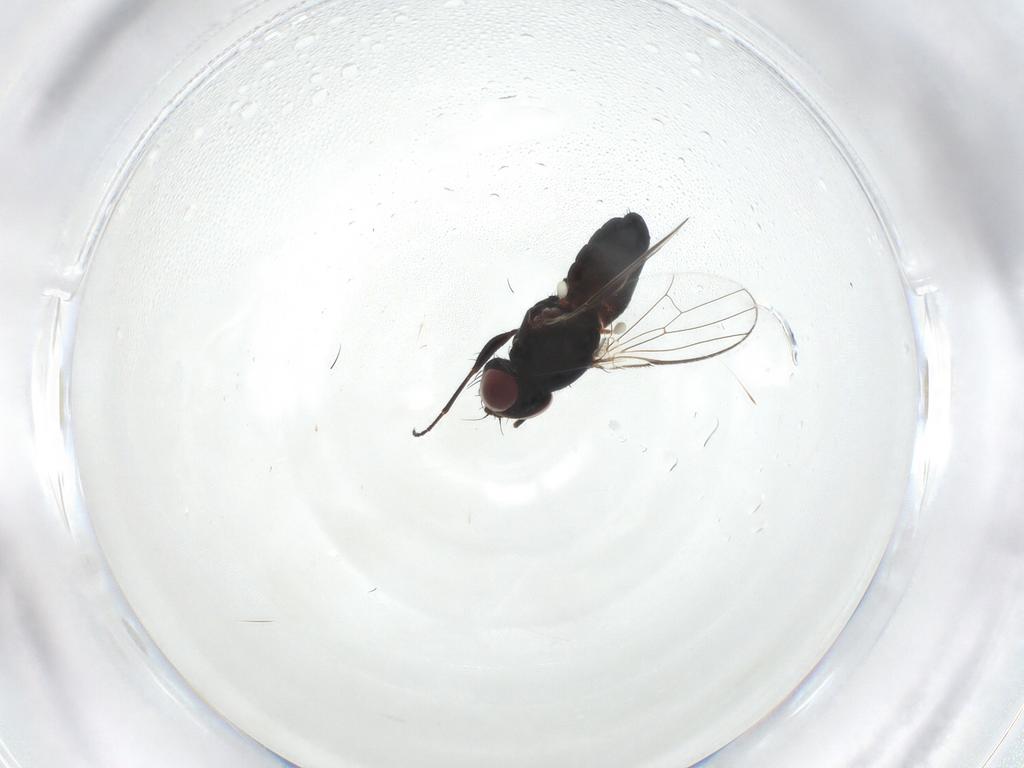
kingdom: Animalia
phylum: Arthropoda
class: Insecta
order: Diptera
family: Carnidae
